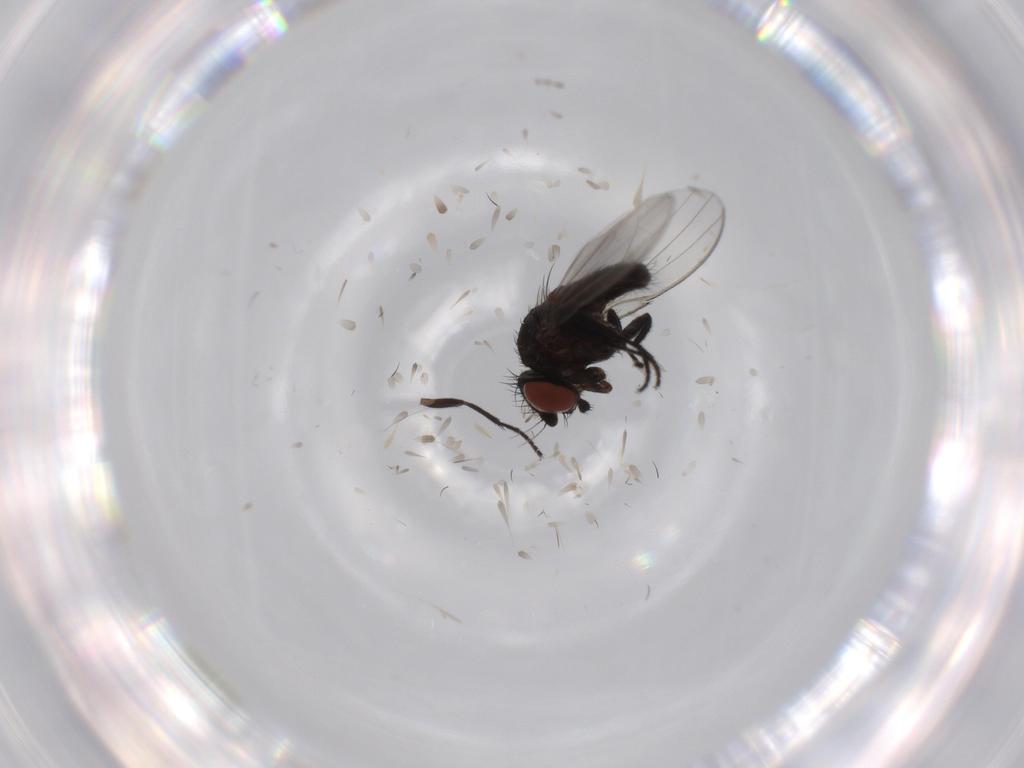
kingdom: Animalia
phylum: Arthropoda
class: Insecta
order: Diptera
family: Milichiidae
